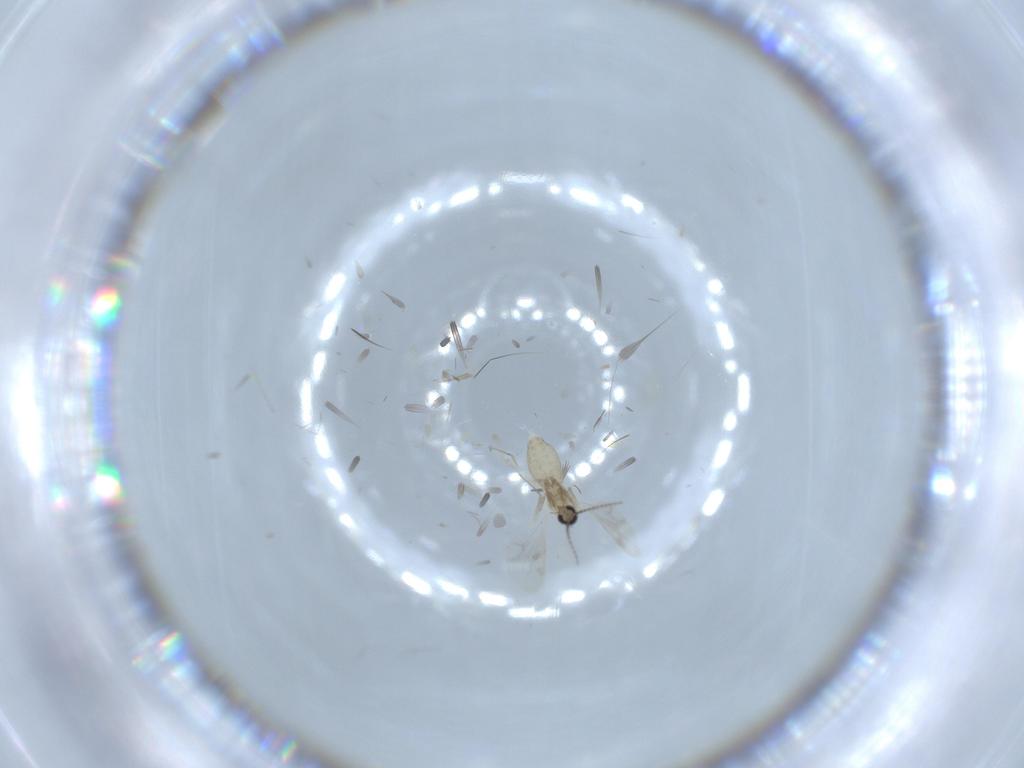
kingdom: Animalia
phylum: Arthropoda
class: Insecta
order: Diptera
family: Cecidomyiidae
